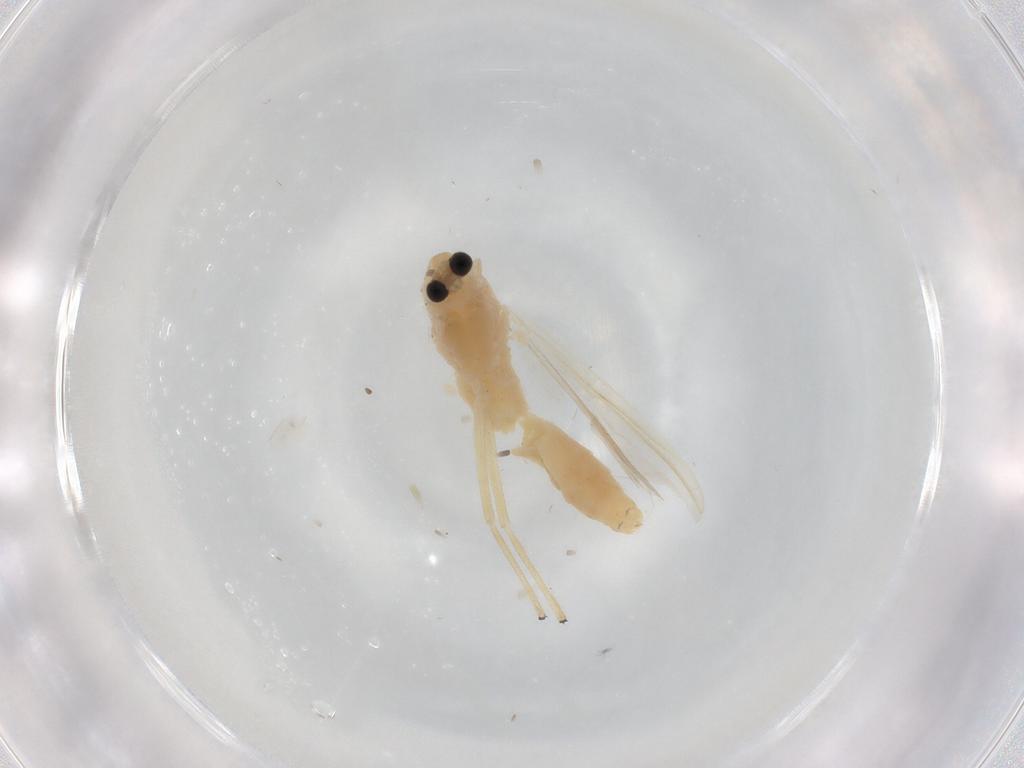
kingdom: Animalia
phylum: Arthropoda
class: Insecta
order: Diptera
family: Chironomidae
